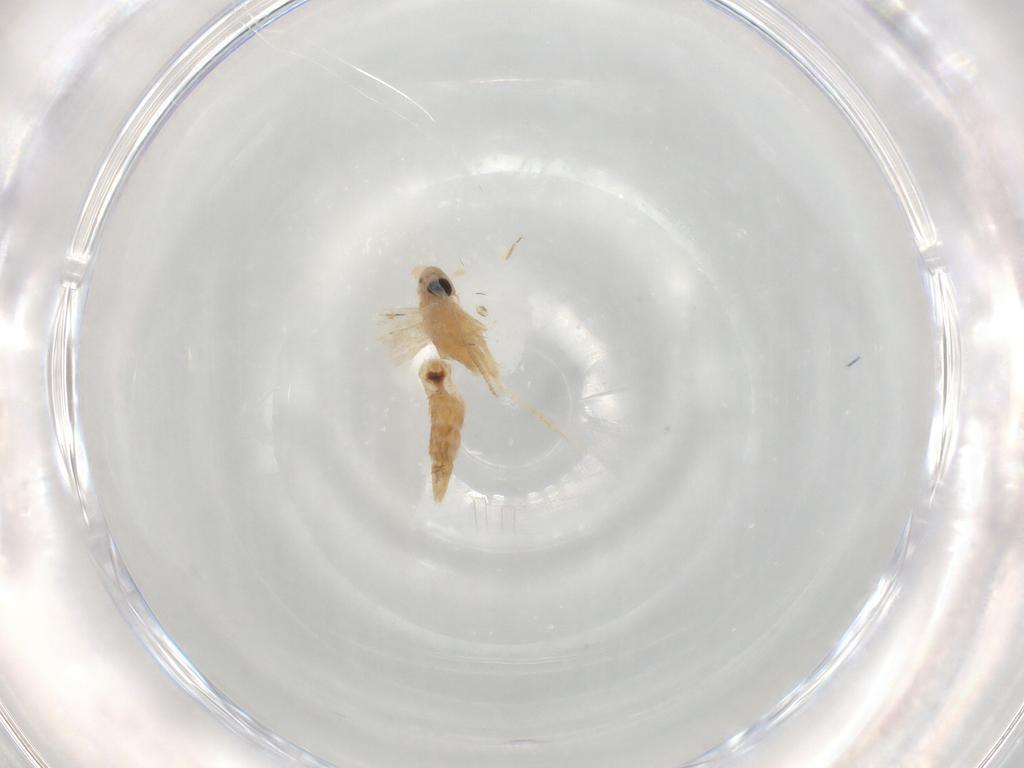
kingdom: Animalia
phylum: Arthropoda
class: Insecta
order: Lepidoptera
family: Lyonetiidae
